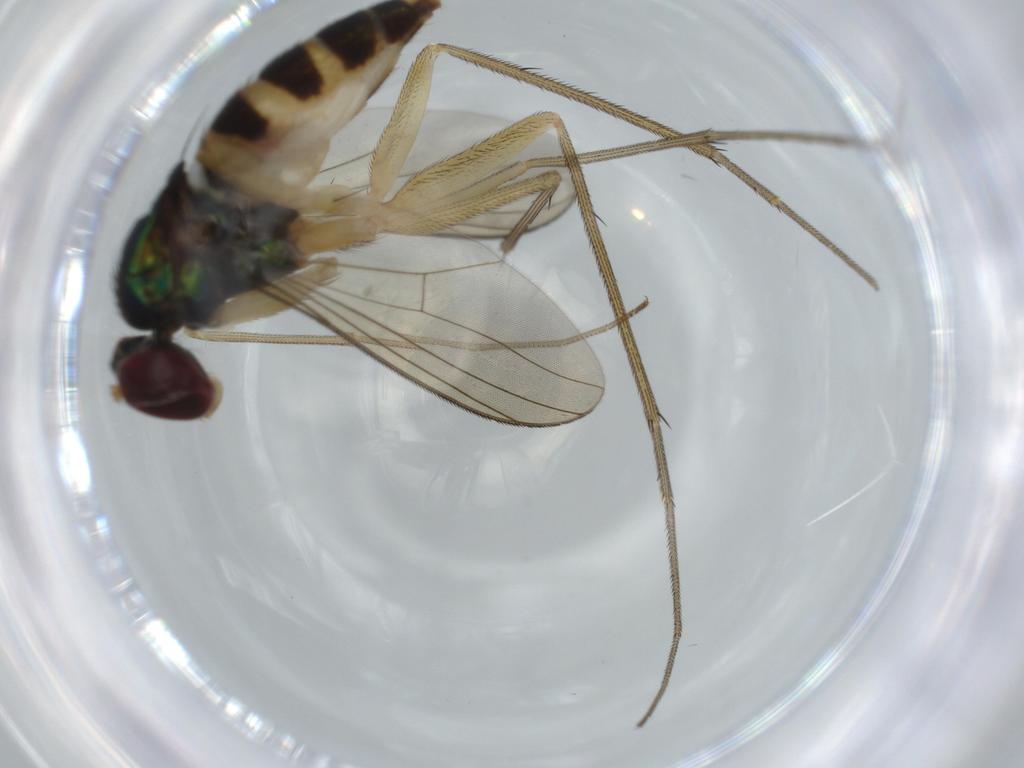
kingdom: Animalia
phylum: Arthropoda
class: Insecta
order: Diptera
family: Dolichopodidae
